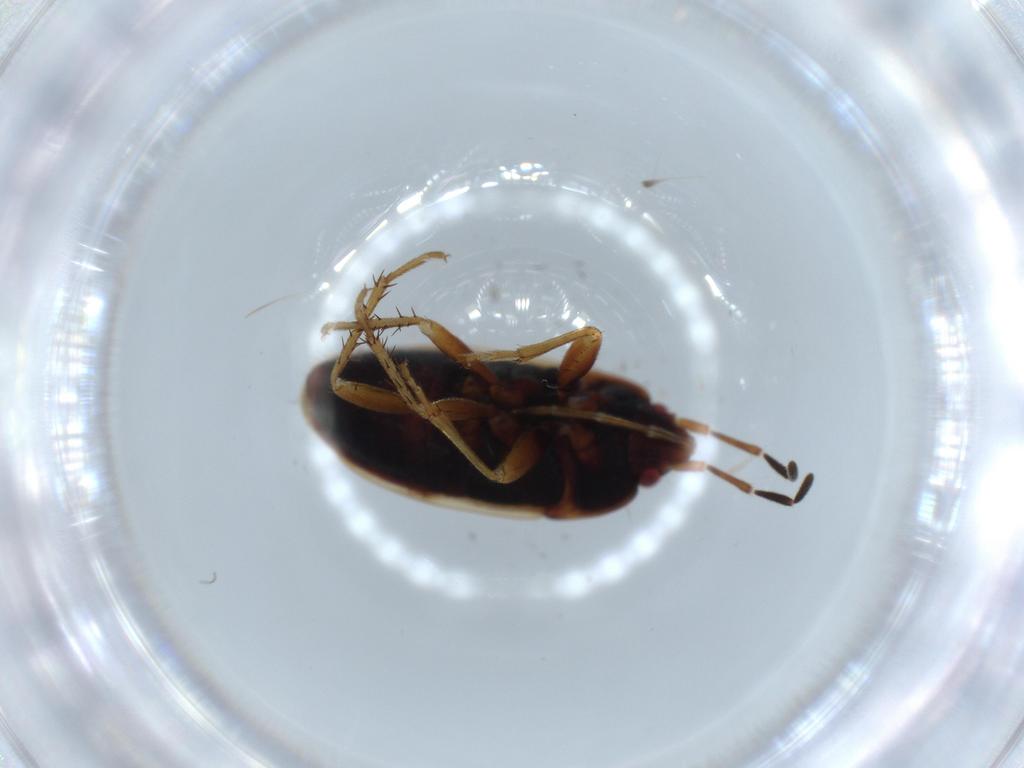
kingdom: Animalia
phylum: Arthropoda
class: Insecta
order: Hemiptera
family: Rhyparochromidae
